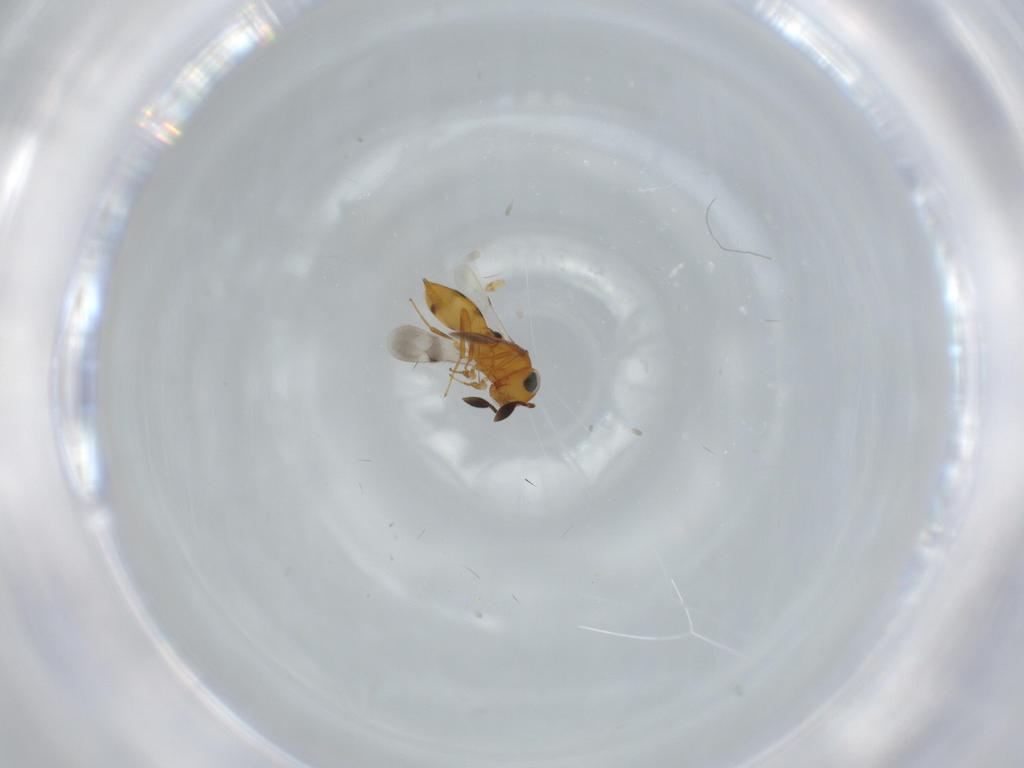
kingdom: Animalia
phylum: Arthropoda
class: Insecta
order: Hymenoptera
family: Scelionidae
